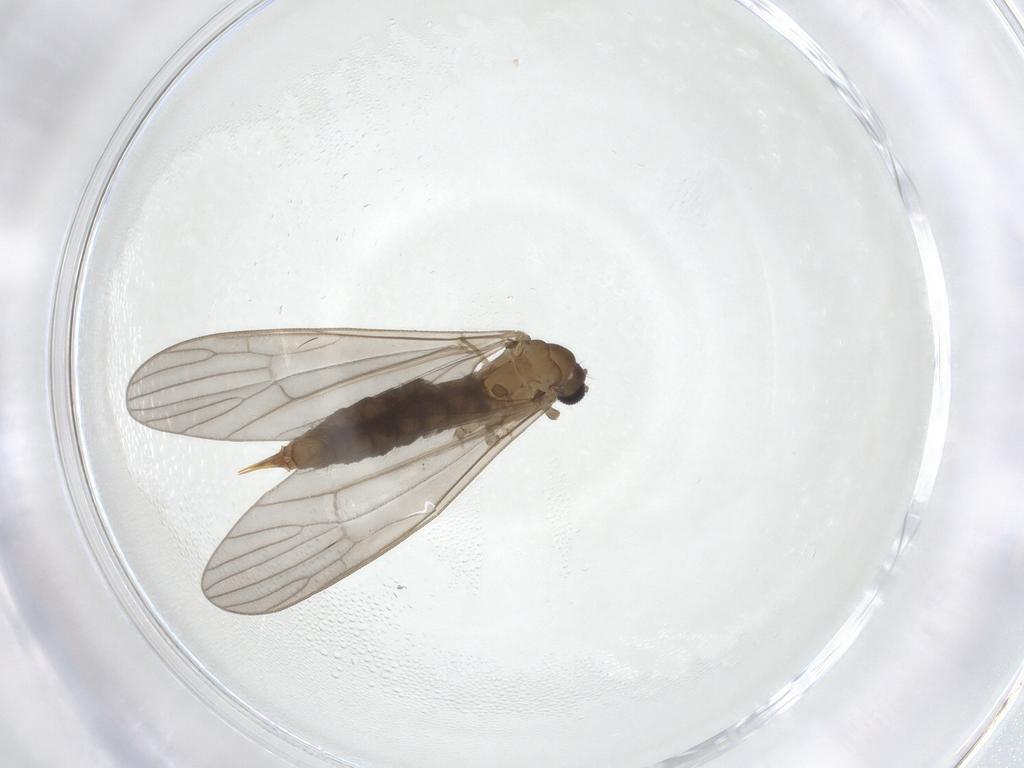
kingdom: Animalia
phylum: Arthropoda
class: Insecta
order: Diptera
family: Limoniidae
